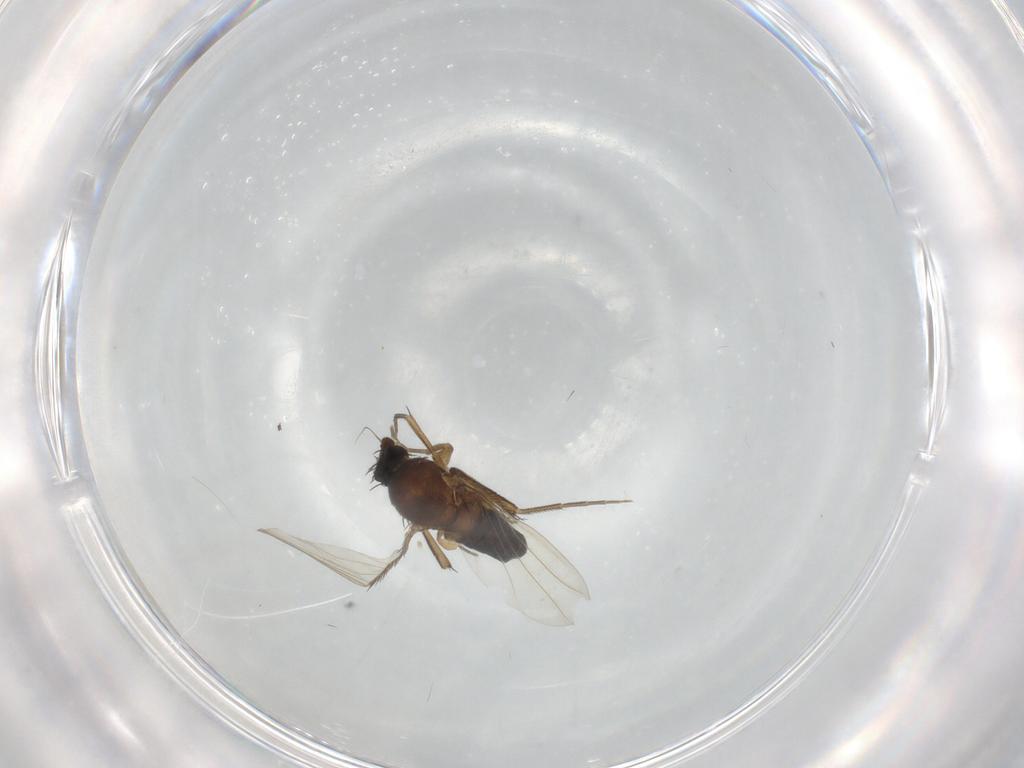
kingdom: Animalia
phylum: Arthropoda
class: Insecta
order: Diptera
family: Phoridae
